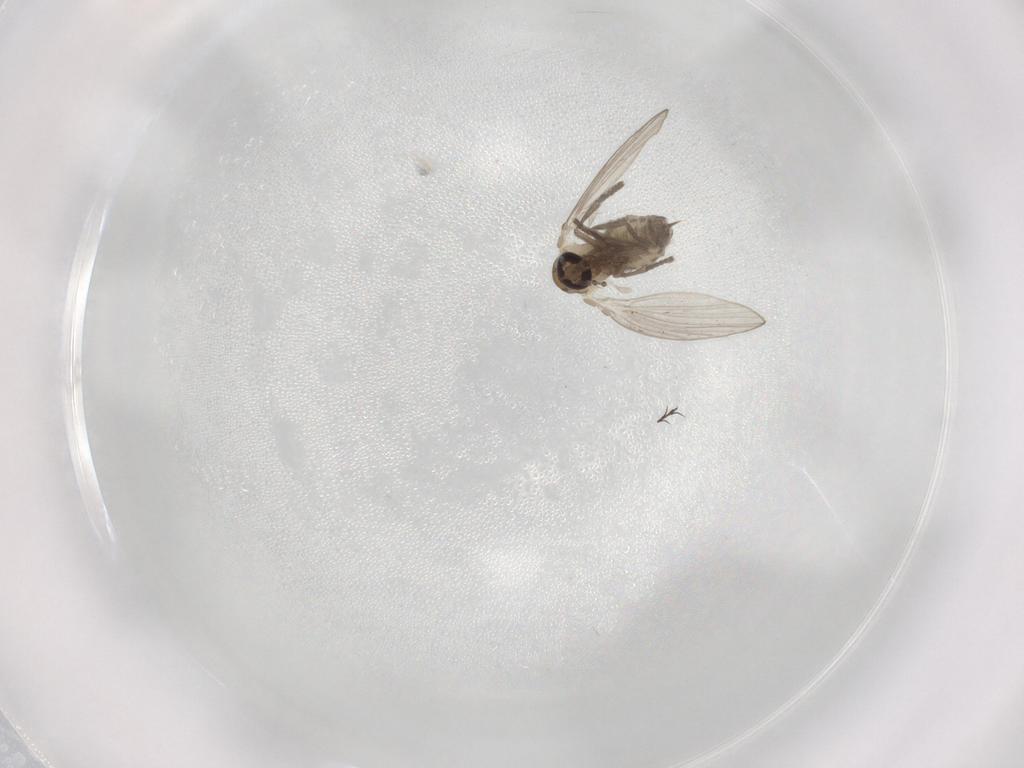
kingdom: Animalia
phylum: Arthropoda
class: Insecta
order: Diptera
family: Psychodidae
